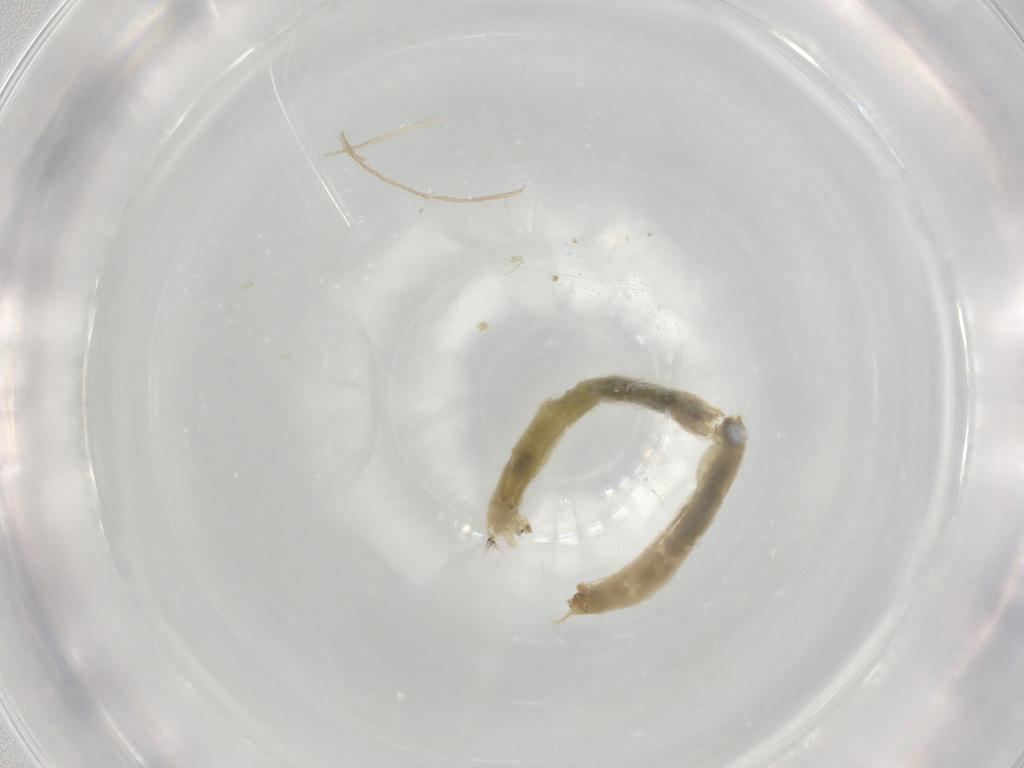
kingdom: Animalia
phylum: Arthropoda
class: Insecta
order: Diptera
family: Chironomidae
